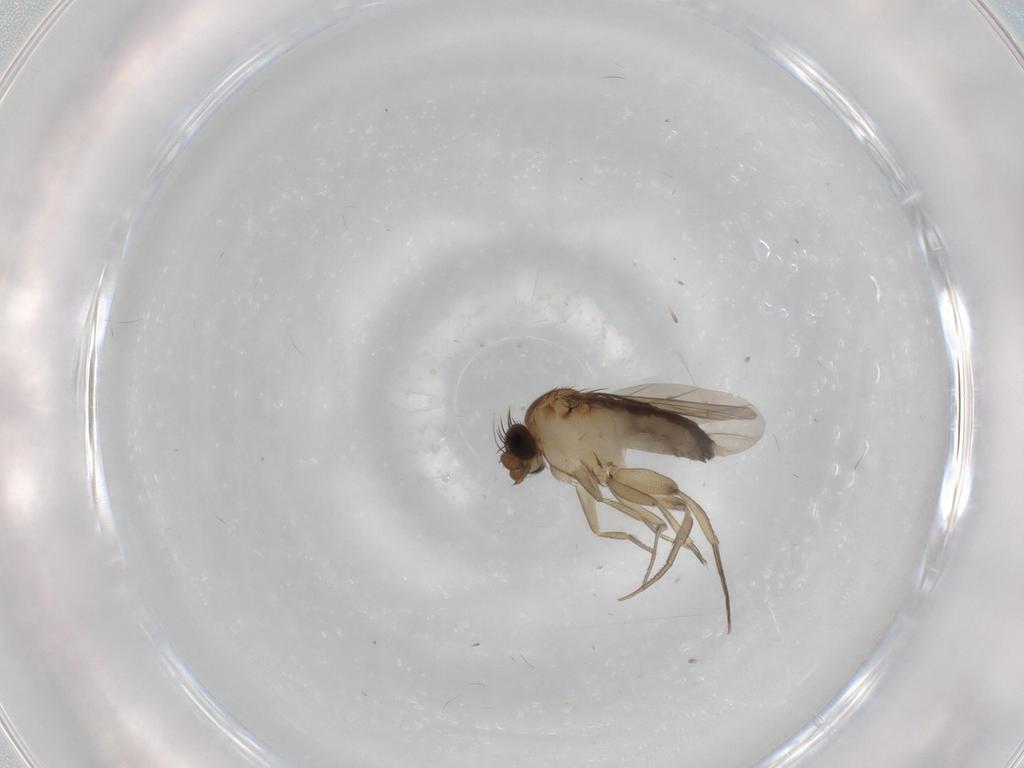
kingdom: Animalia
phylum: Arthropoda
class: Insecta
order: Diptera
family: Phoridae
